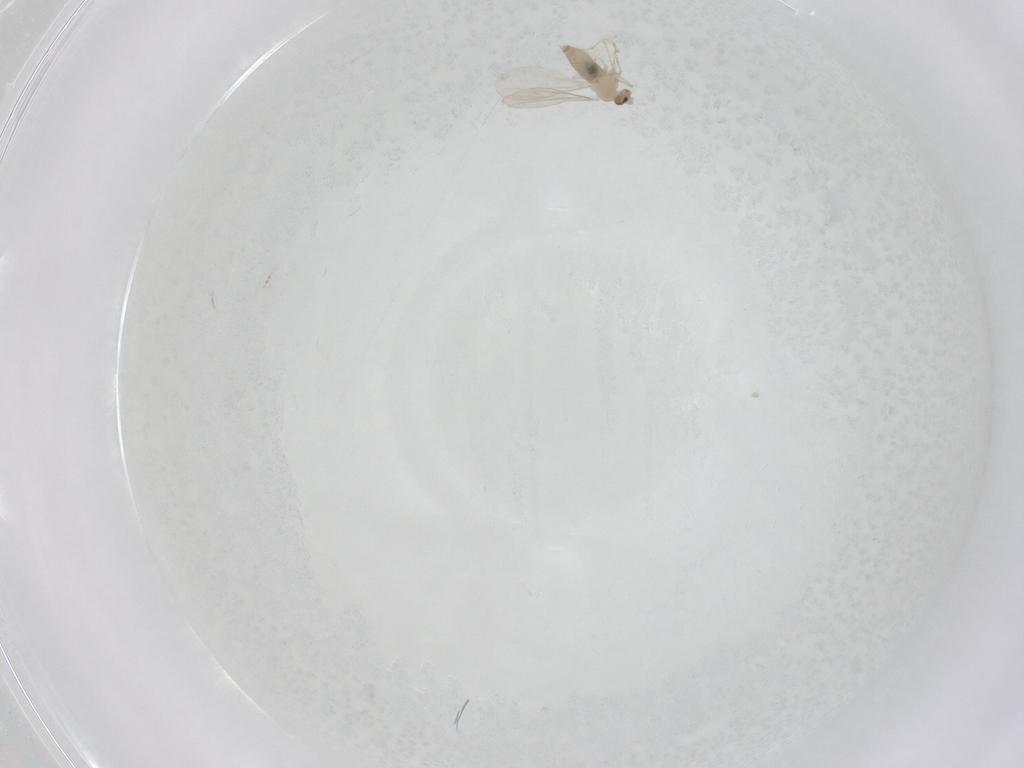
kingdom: Animalia
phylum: Arthropoda
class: Insecta
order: Diptera
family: Cecidomyiidae
